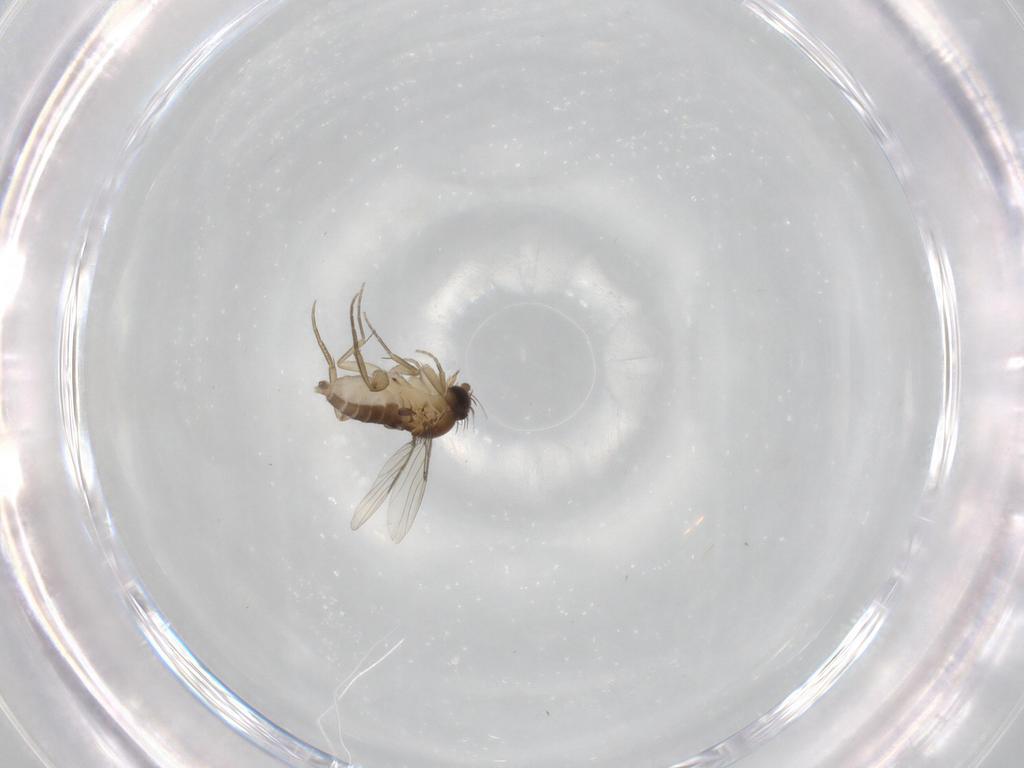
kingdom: Animalia
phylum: Arthropoda
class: Insecta
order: Diptera
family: Chironomidae
